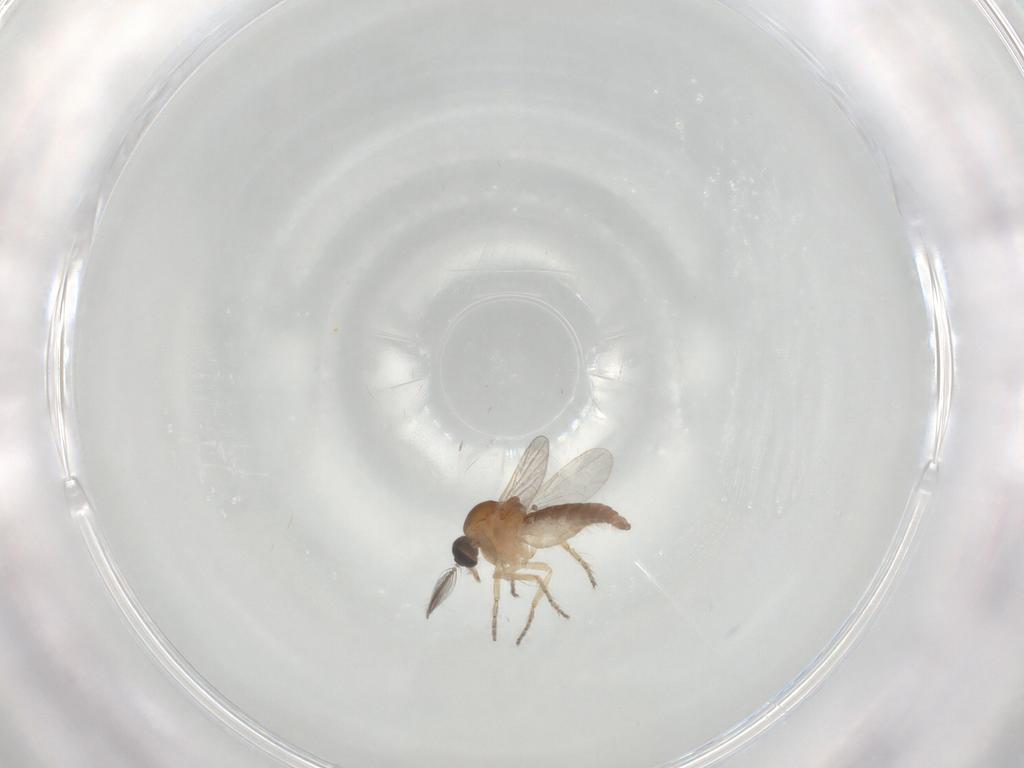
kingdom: Animalia
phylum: Arthropoda
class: Insecta
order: Diptera
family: Ceratopogonidae
